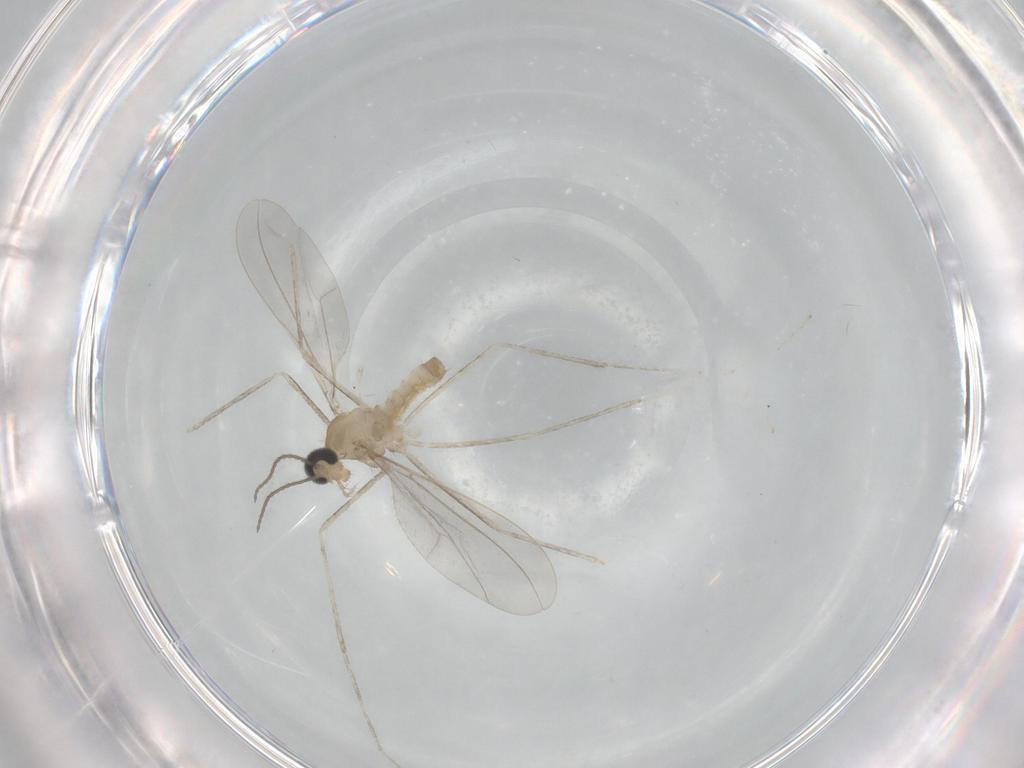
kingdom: Animalia
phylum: Arthropoda
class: Insecta
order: Diptera
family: Cecidomyiidae
